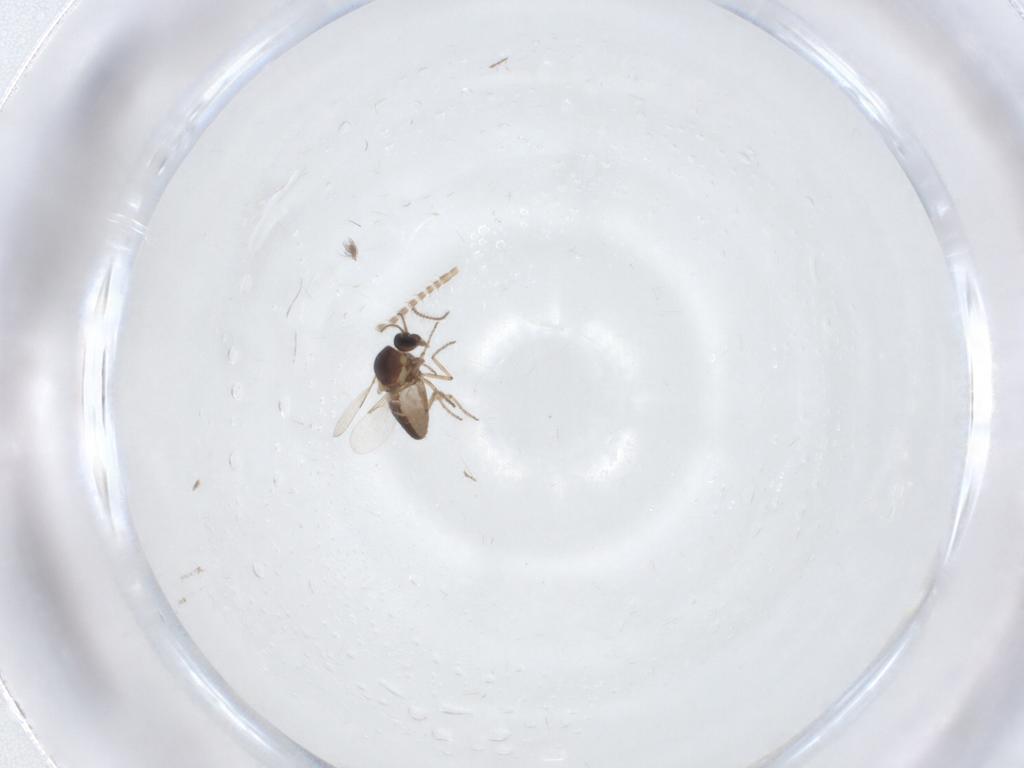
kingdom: Animalia
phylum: Arthropoda
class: Insecta
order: Diptera
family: Ceratopogonidae
